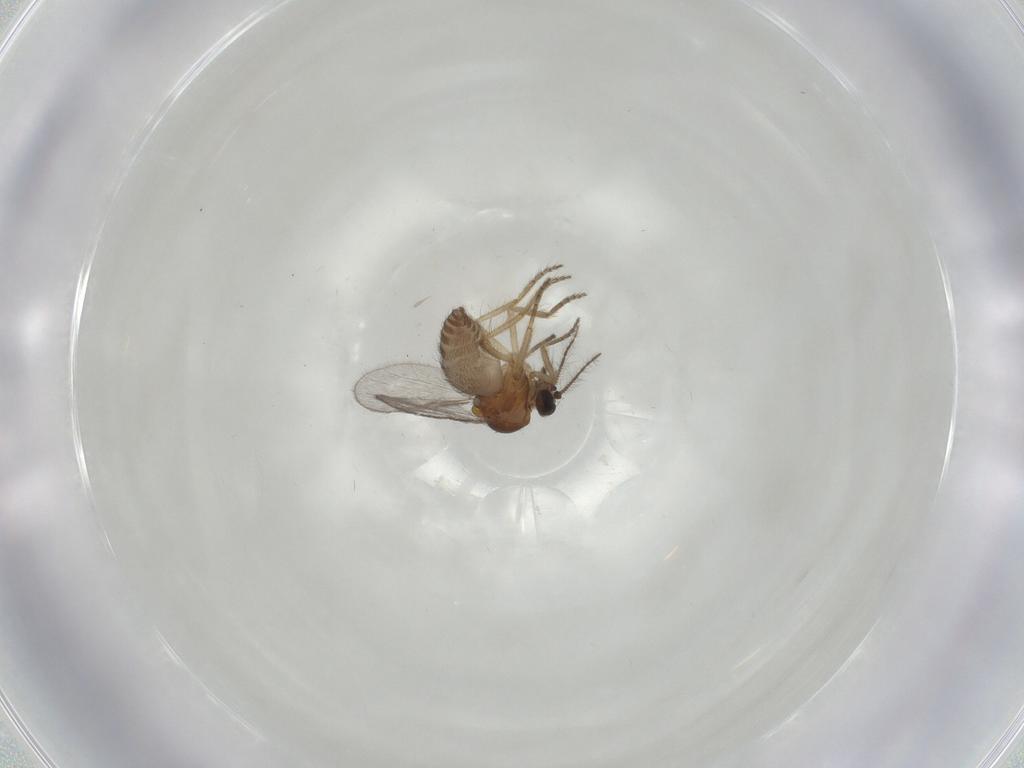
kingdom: Animalia
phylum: Arthropoda
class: Insecta
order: Diptera
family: Ceratopogonidae
